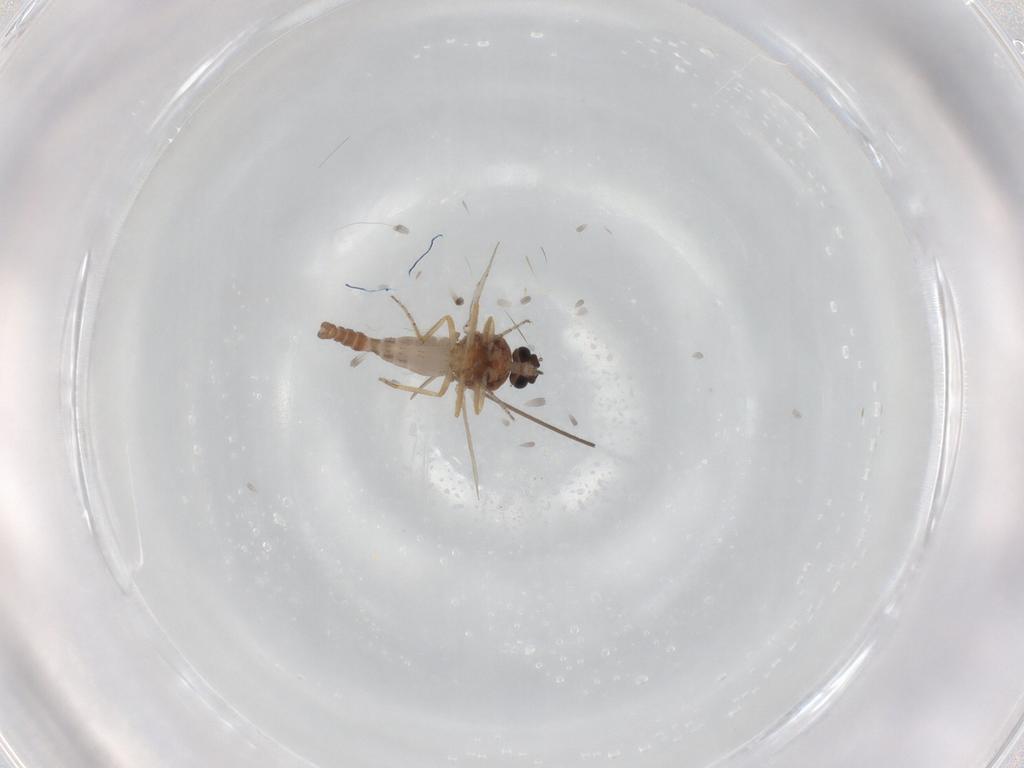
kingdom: Animalia
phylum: Arthropoda
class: Insecta
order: Diptera
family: Ceratopogonidae
